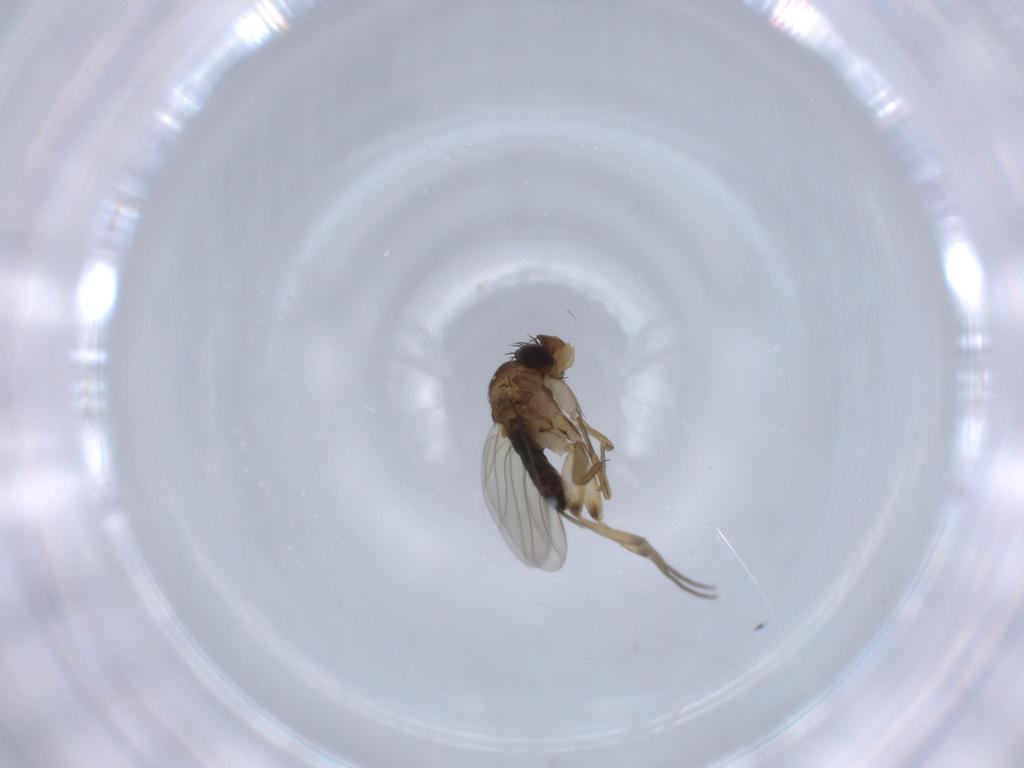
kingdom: Animalia
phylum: Arthropoda
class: Insecta
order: Diptera
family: Phoridae
